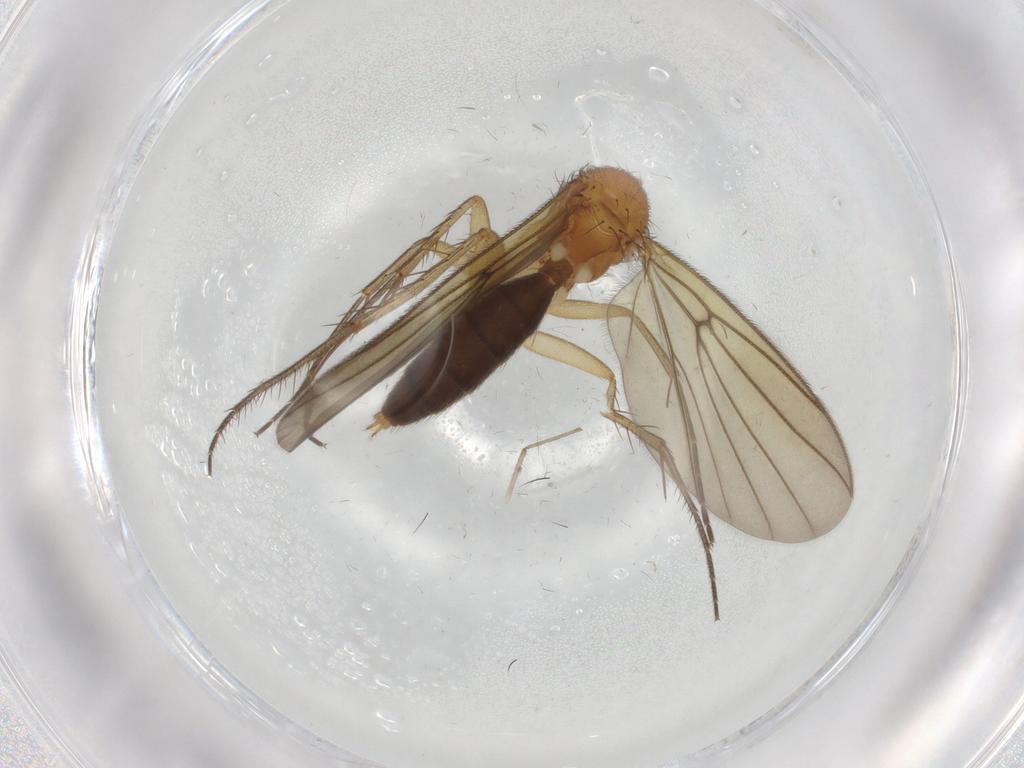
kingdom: Animalia
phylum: Arthropoda
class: Insecta
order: Diptera
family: Mycetophilidae
